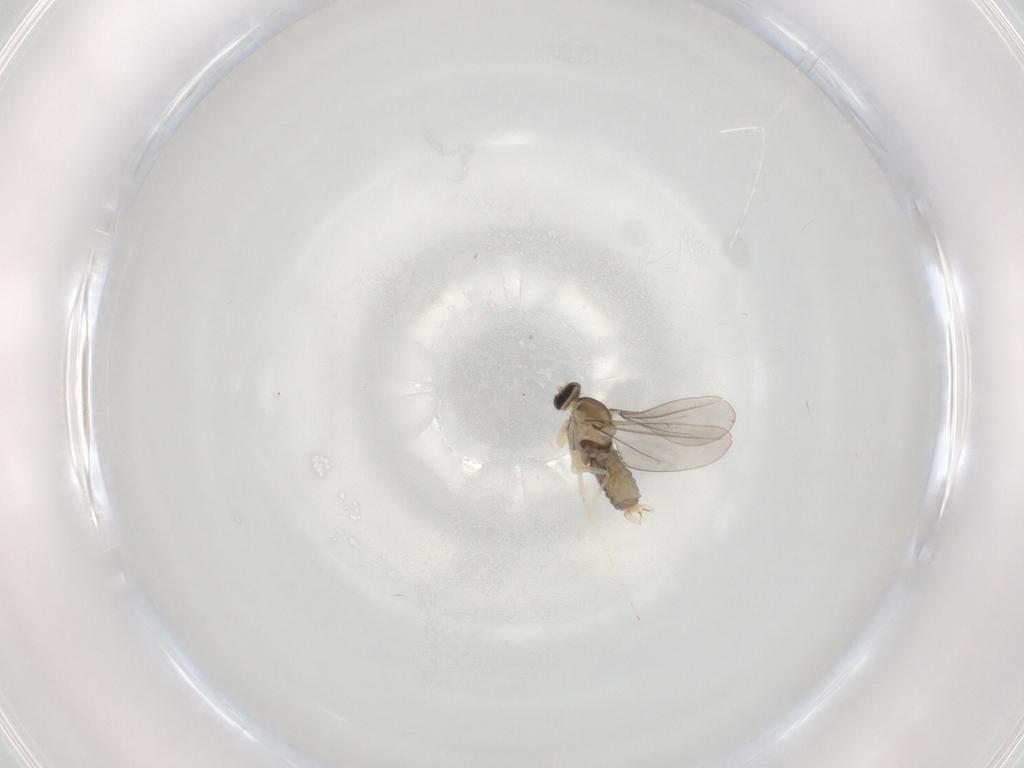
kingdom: Animalia
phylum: Arthropoda
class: Insecta
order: Diptera
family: Cecidomyiidae
